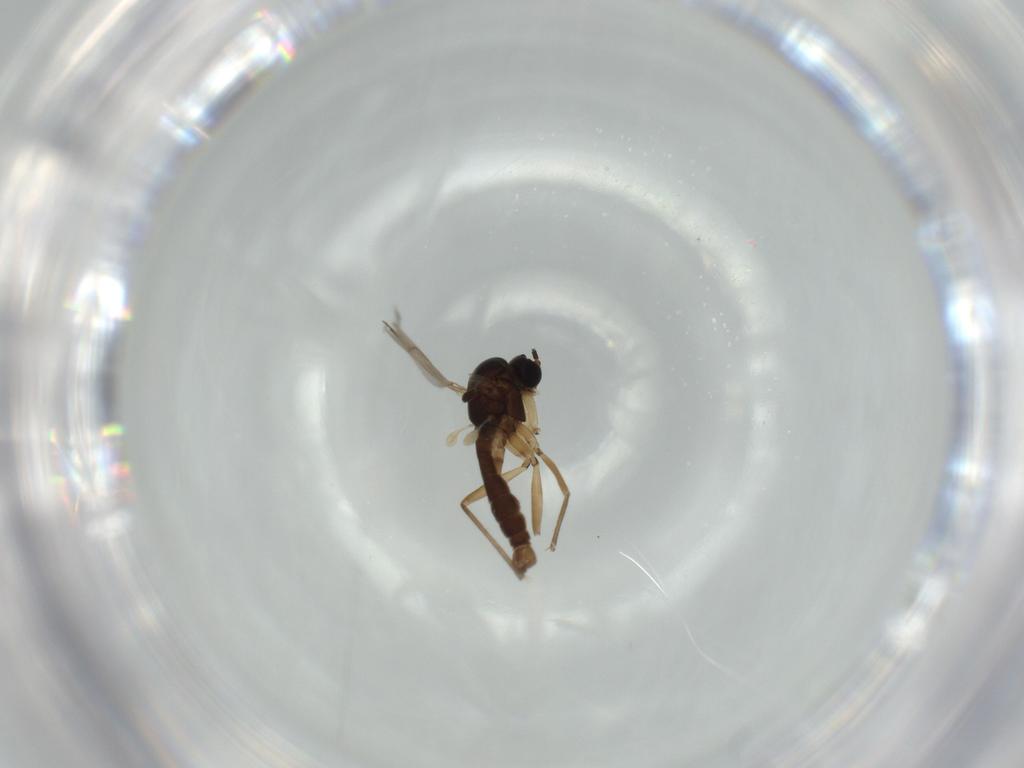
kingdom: Animalia
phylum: Arthropoda
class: Insecta
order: Diptera
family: Sciaridae
